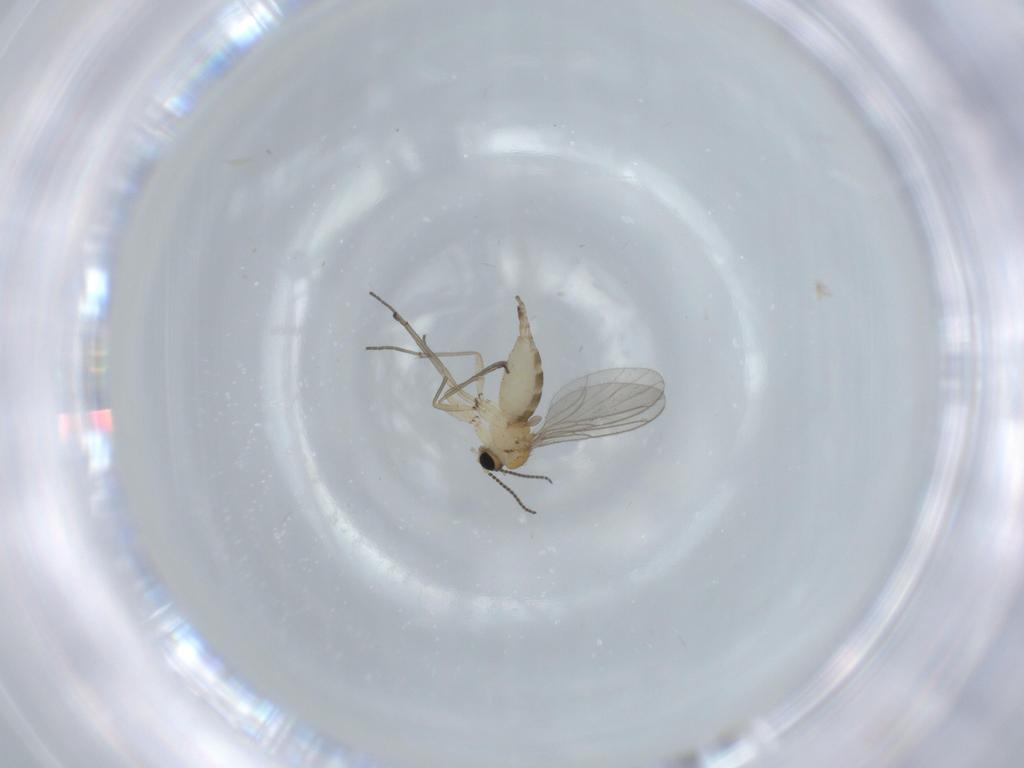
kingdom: Animalia
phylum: Arthropoda
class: Insecta
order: Diptera
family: Sciaridae
